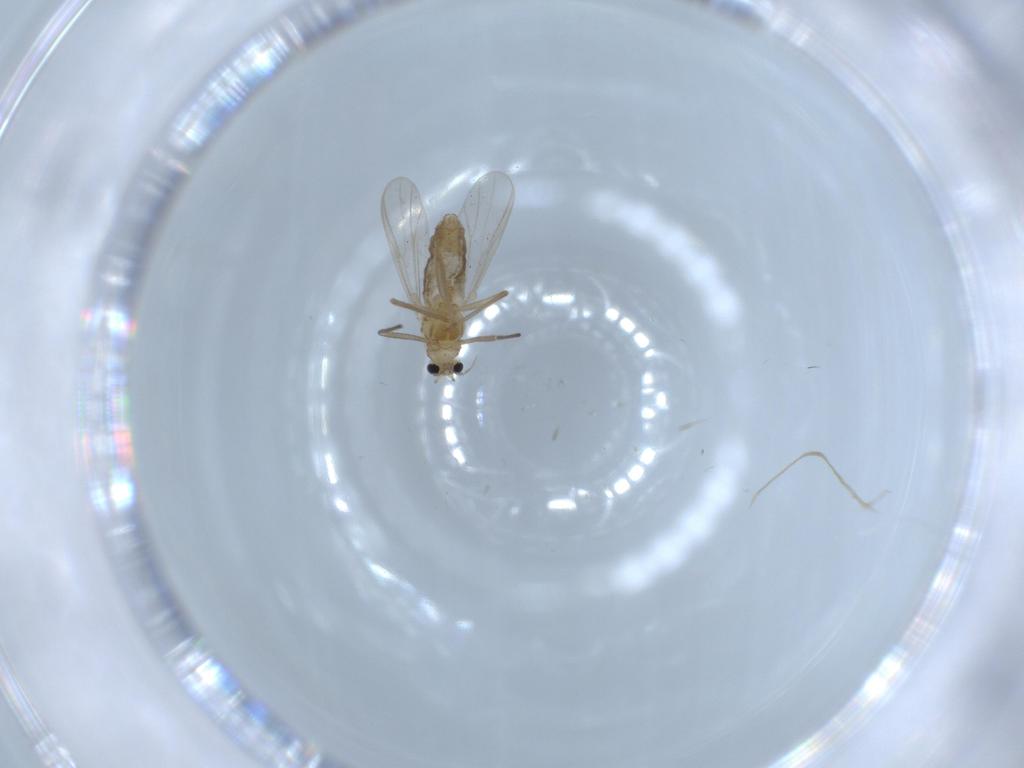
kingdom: Animalia
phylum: Arthropoda
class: Insecta
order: Diptera
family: Chironomidae
